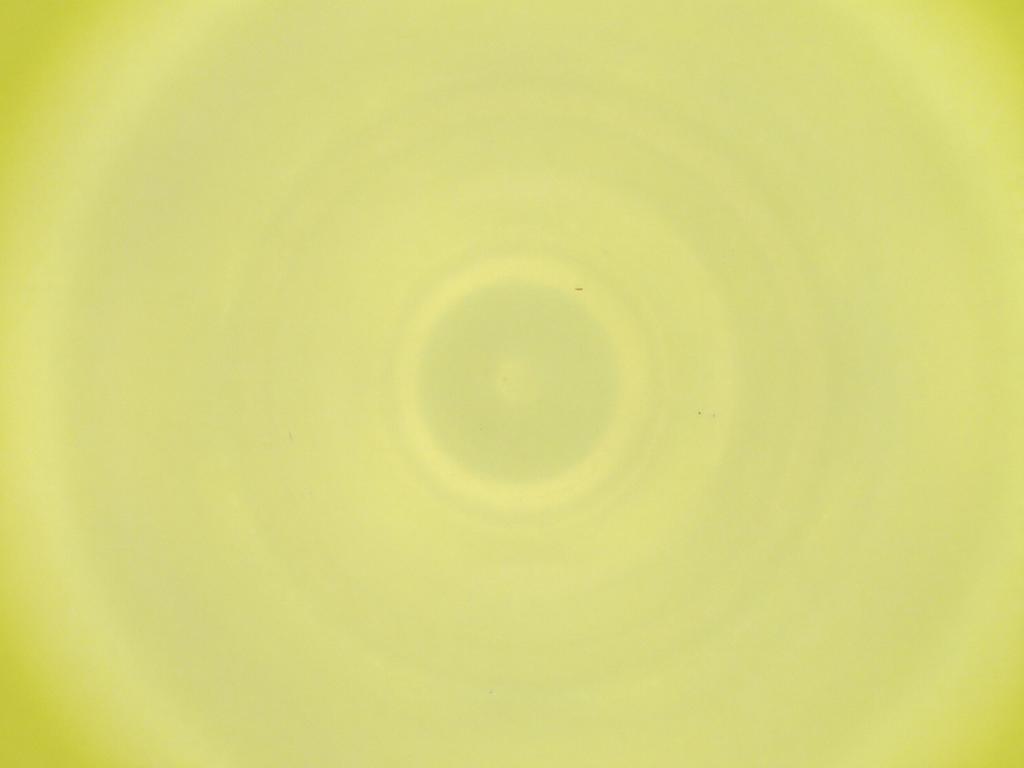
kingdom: Animalia
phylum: Arthropoda
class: Insecta
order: Diptera
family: Cecidomyiidae
